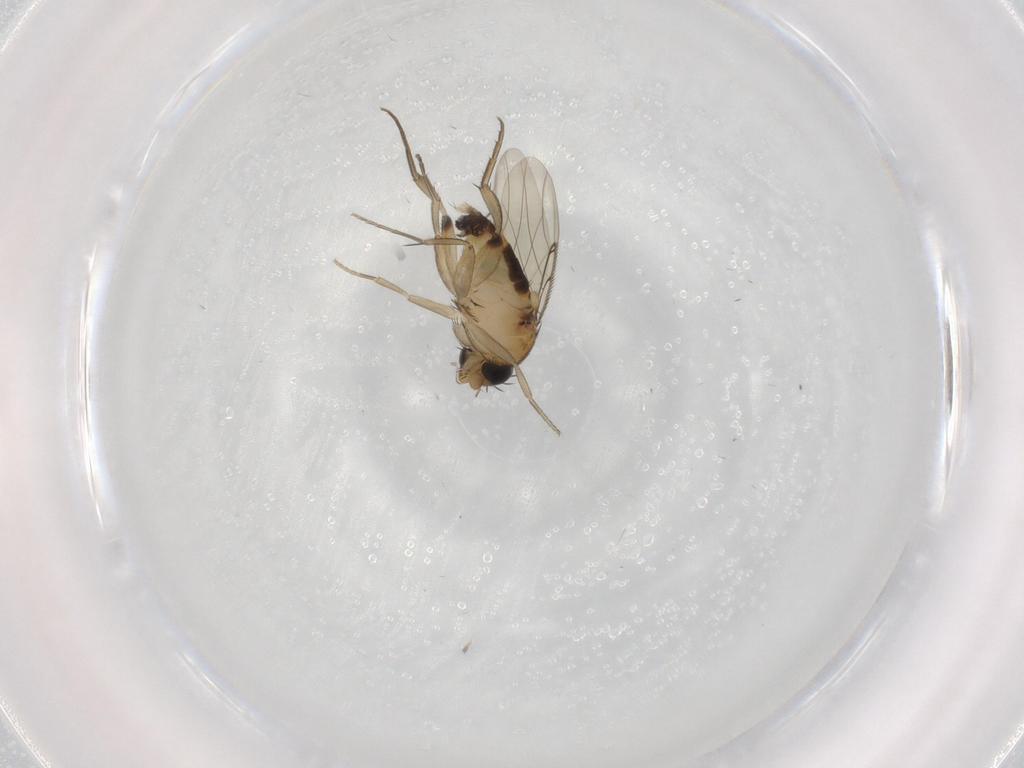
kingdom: Animalia
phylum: Arthropoda
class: Insecta
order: Diptera
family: Phoridae
